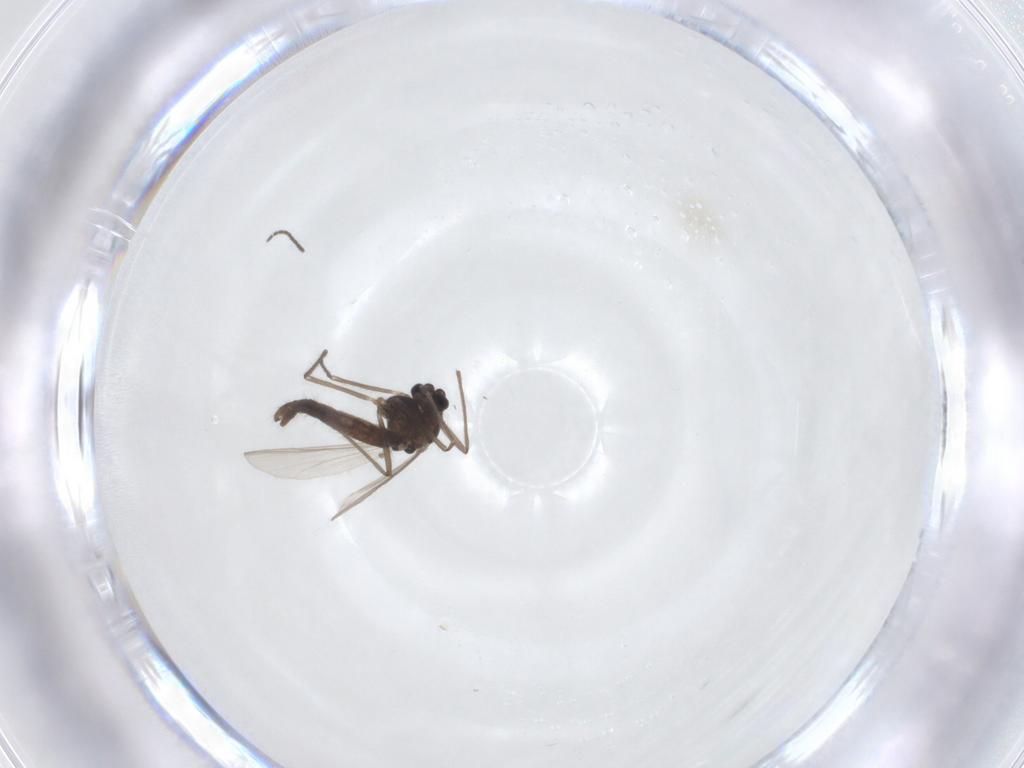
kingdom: Animalia
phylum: Arthropoda
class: Insecta
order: Diptera
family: Chironomidae
